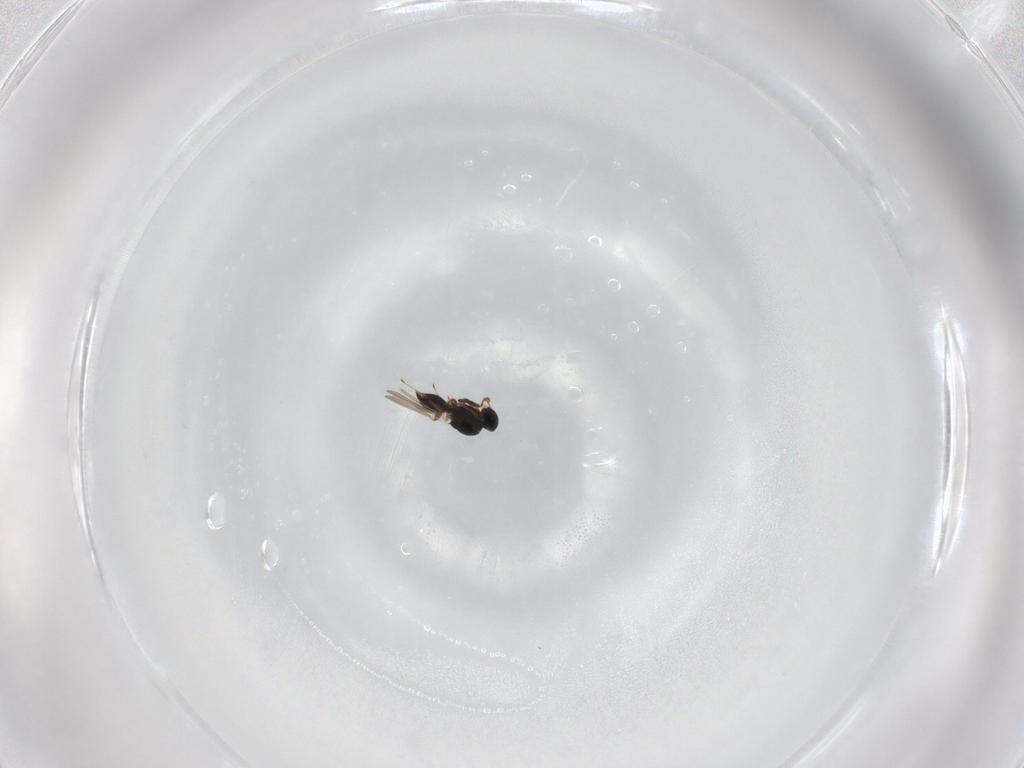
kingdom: Animalia
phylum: Arthropoda
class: Insecta
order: Hymenoptera
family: Platygastridae
